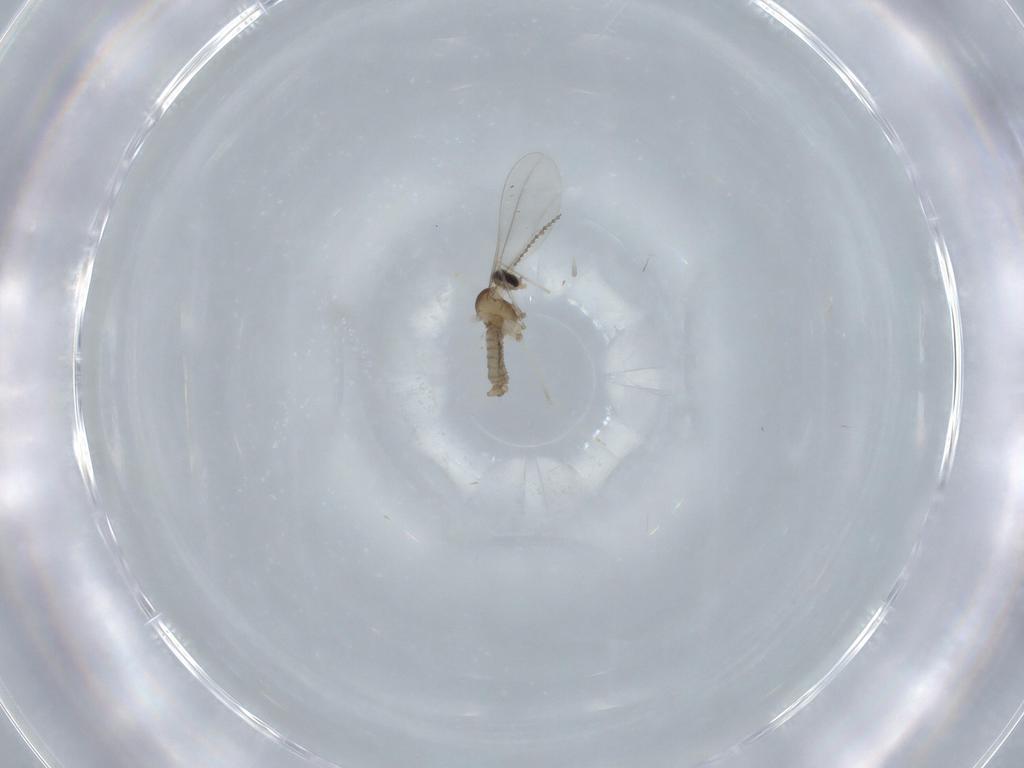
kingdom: Animalia
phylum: Arthropoda
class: Insecta
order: Diptera
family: Cecidomyiidae
